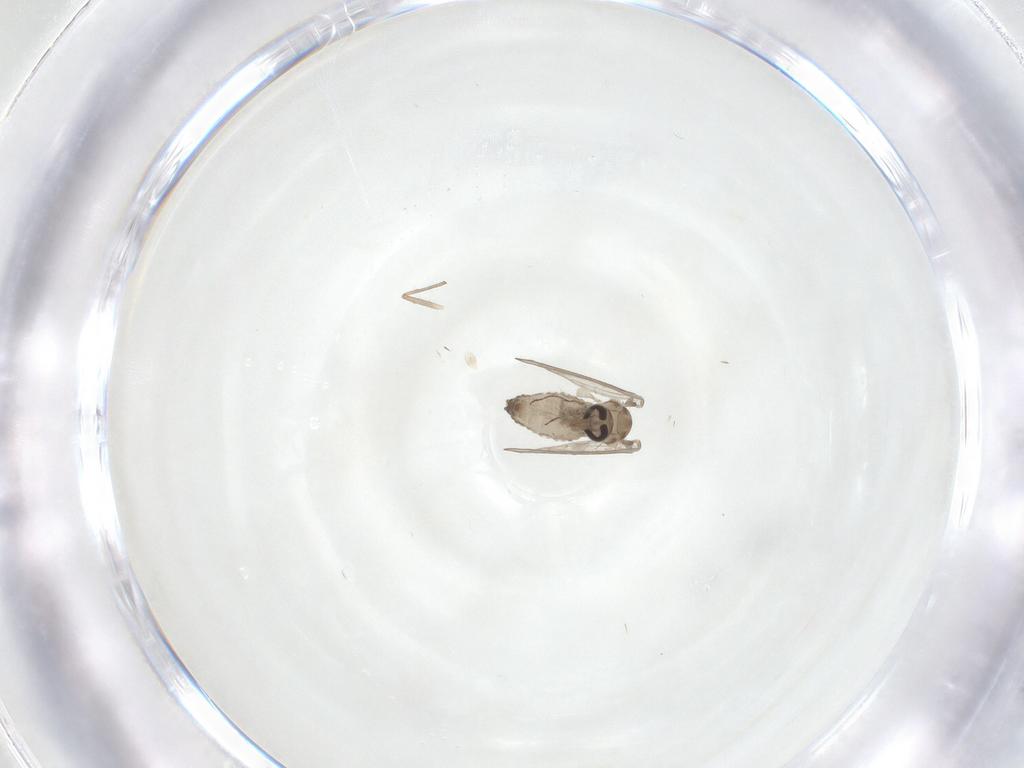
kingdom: Animalia
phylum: Arthropoda
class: Insecta
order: Diptera
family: Psychodidae
